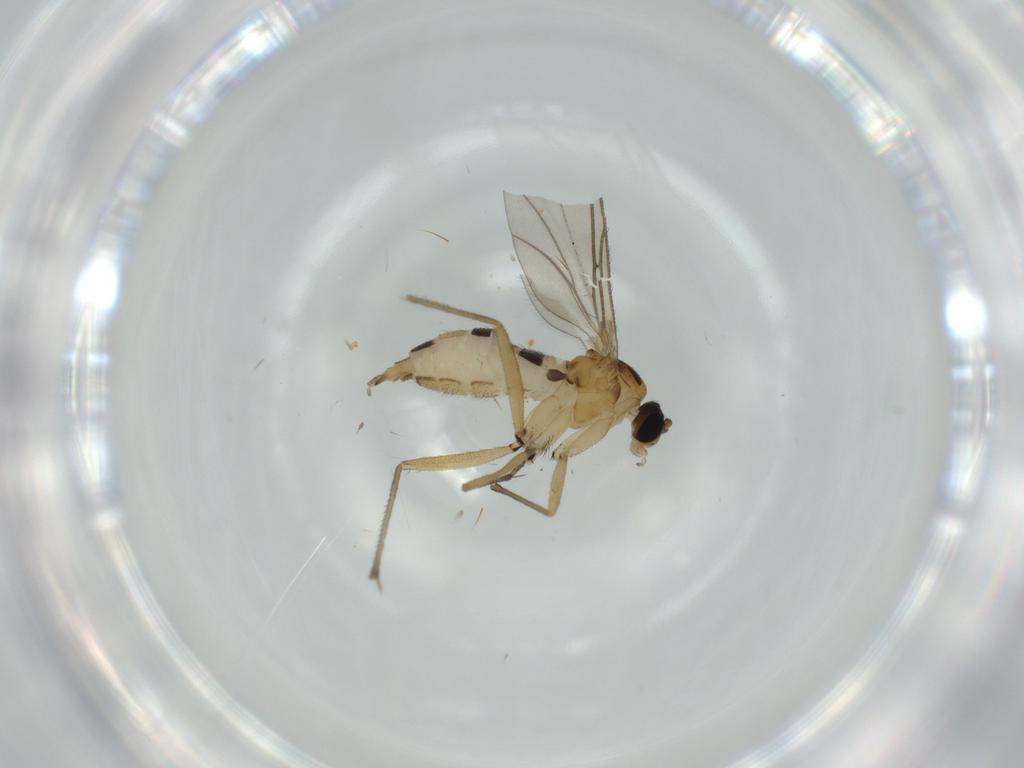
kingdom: Animalia
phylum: Arthropoda
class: Insecta
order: Diptera
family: Sciaridae
